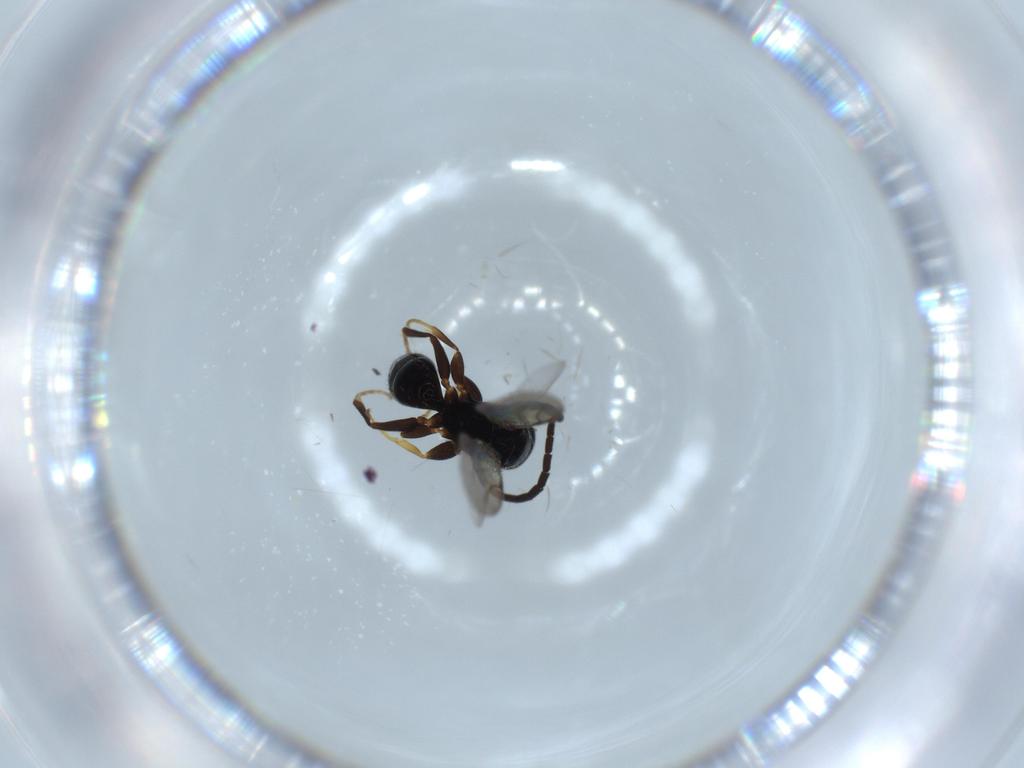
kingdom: Animalia
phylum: Arthropoda
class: Insecta
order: Hymenoptera
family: Bethylidae
